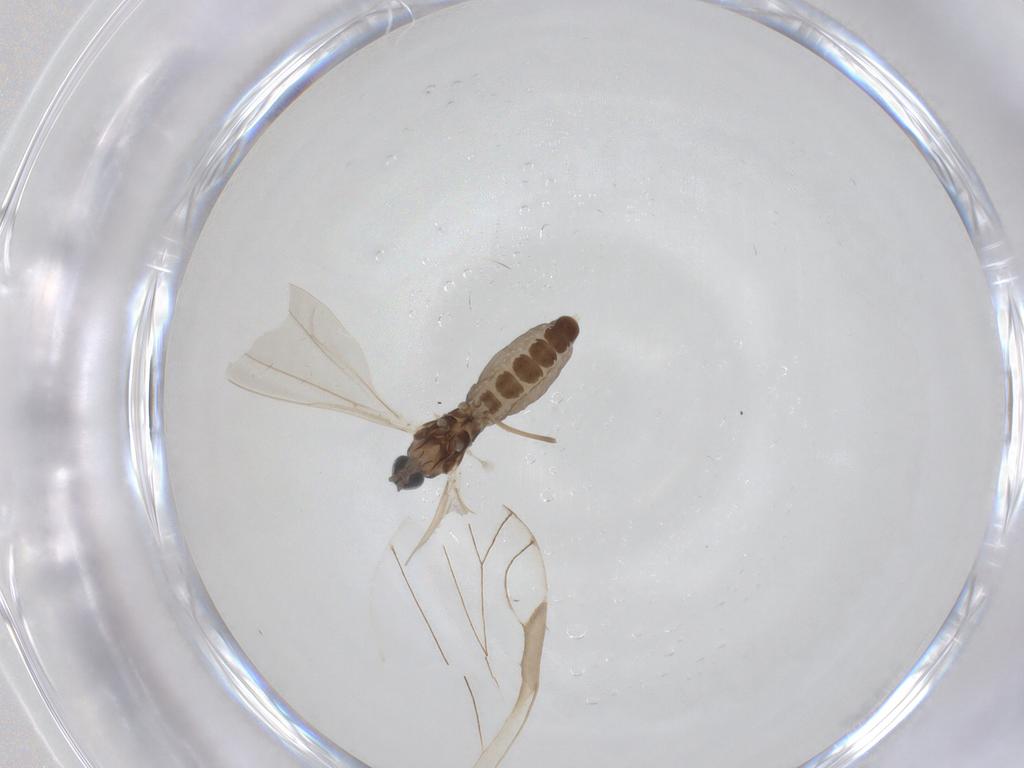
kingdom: Animalia
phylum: Arthropoda
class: Insecta
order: Diptera
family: Cecidomyiidae
